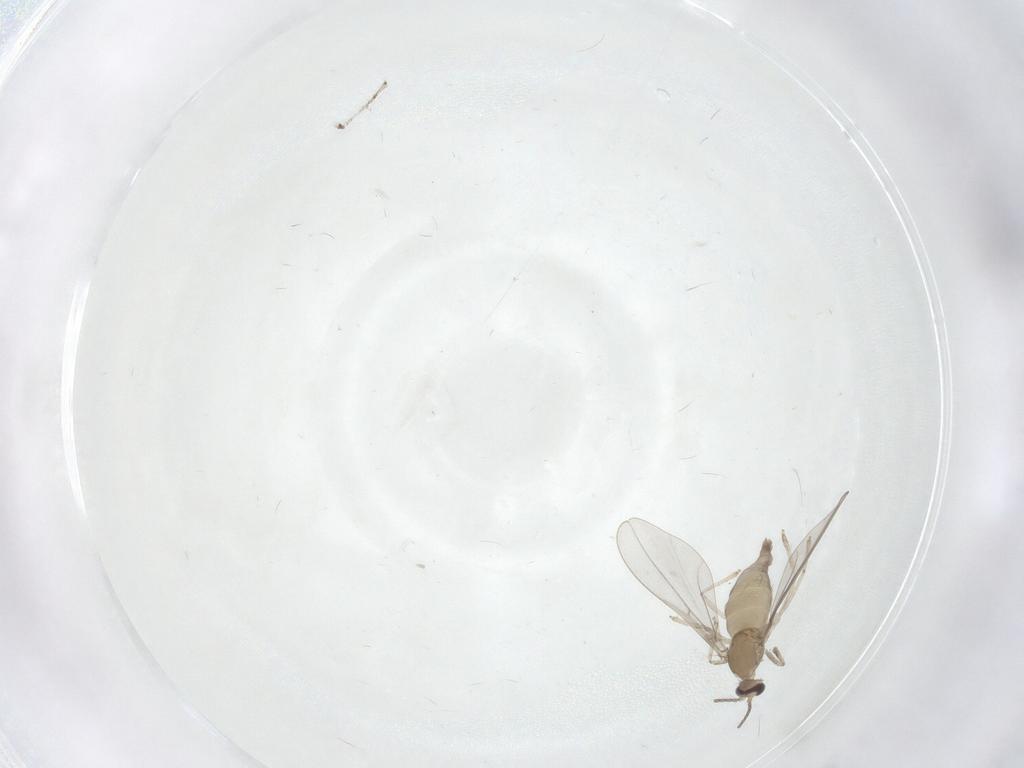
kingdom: Animalia
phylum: Arthropoda
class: Insecta
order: Diptera
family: Cecidomyiidae
